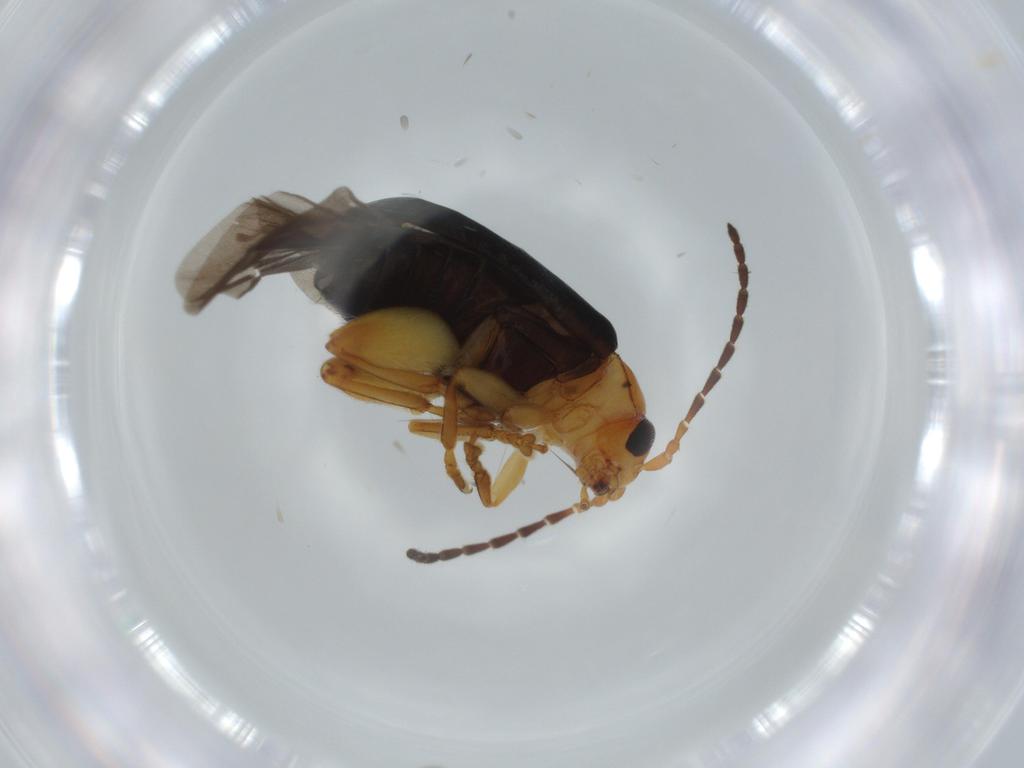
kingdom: Animalia
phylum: Arthropoda
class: Insecta
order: Coleoptera
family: Chrysomelidae
